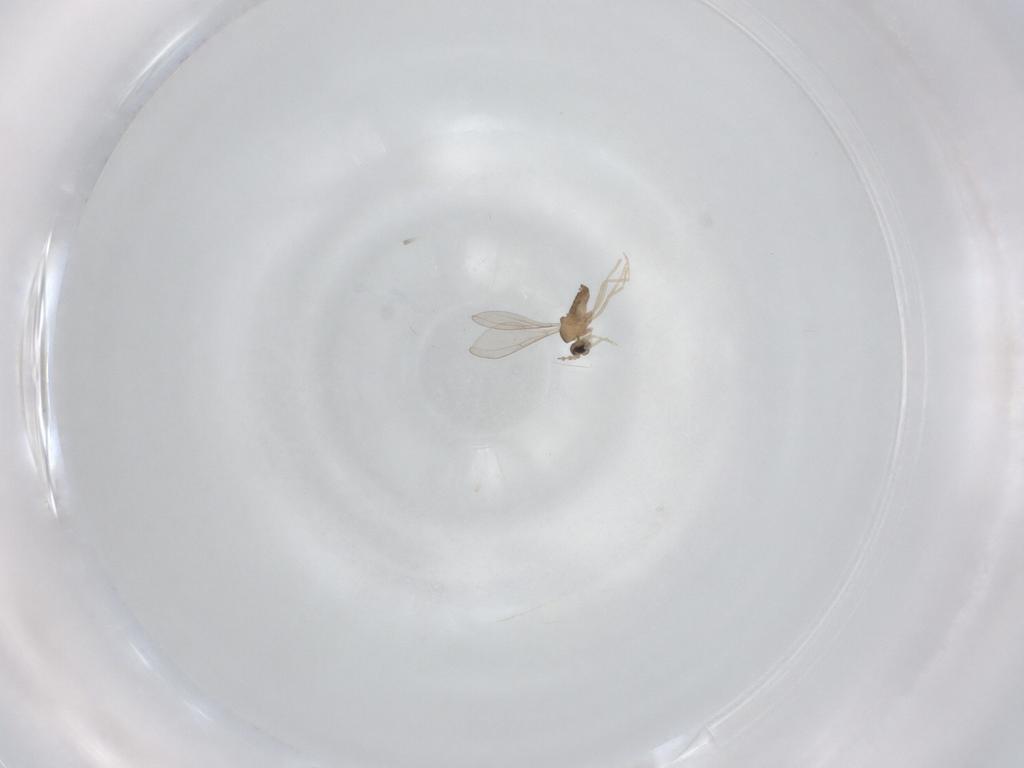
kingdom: Animalia
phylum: Arthropoda
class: Insecta
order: Diptera
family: Cecidomyiidae
